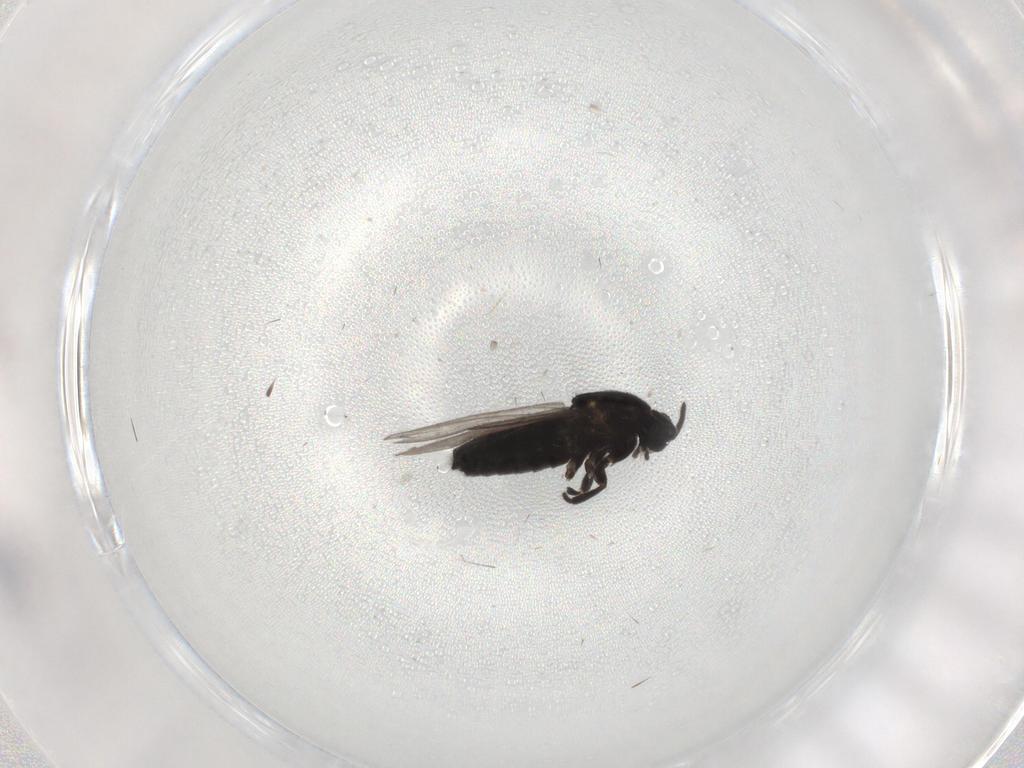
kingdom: Animalia
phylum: Arthropoda
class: Insecta
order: Diptera
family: Scatopsidae
